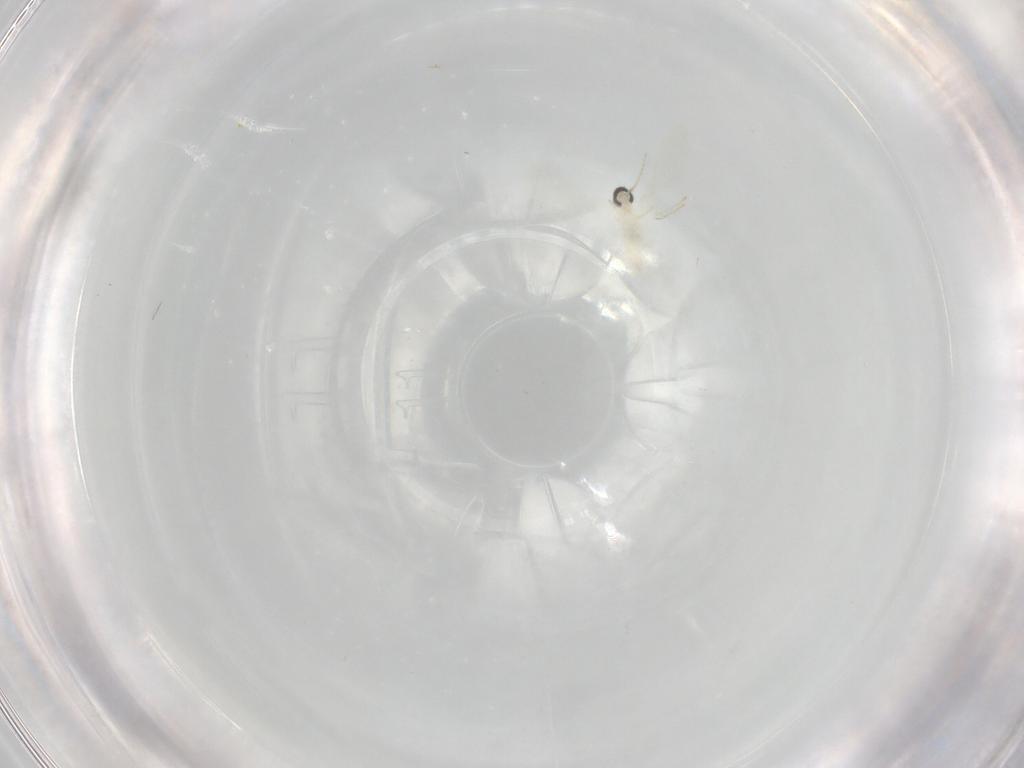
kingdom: Animalia
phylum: Arthropoda
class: Insecta
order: Diptera
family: Cecidomyiidae
